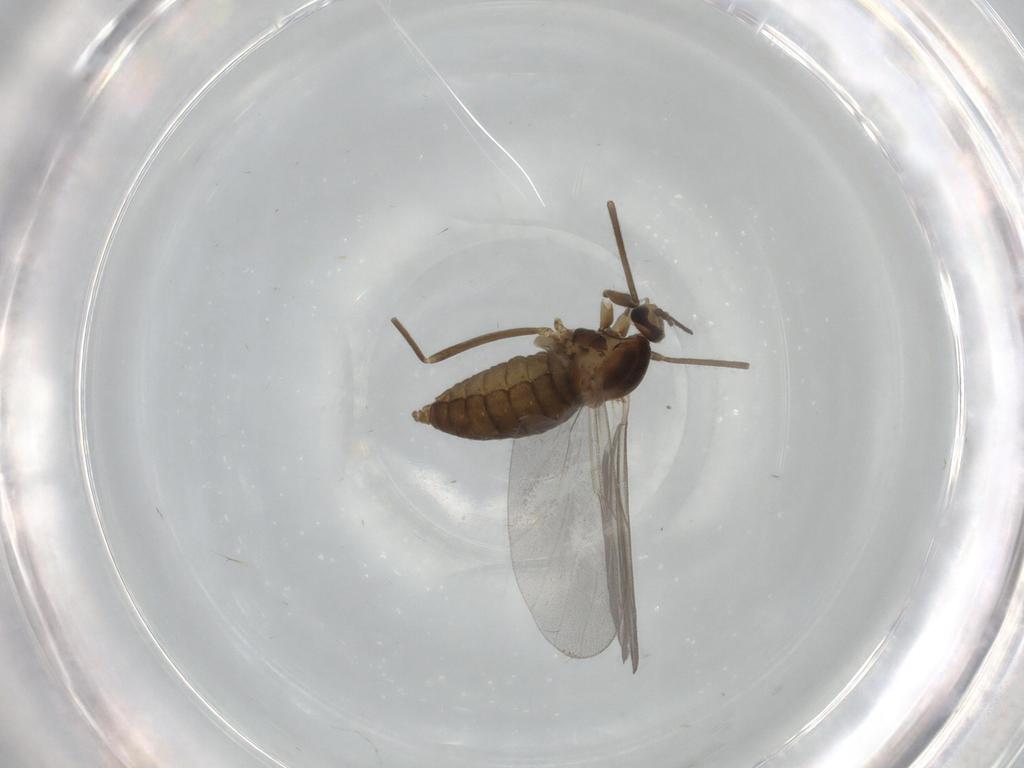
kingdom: Animalia
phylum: Arthropoda
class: Insecta
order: Diptera
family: Cecidomyiidae
